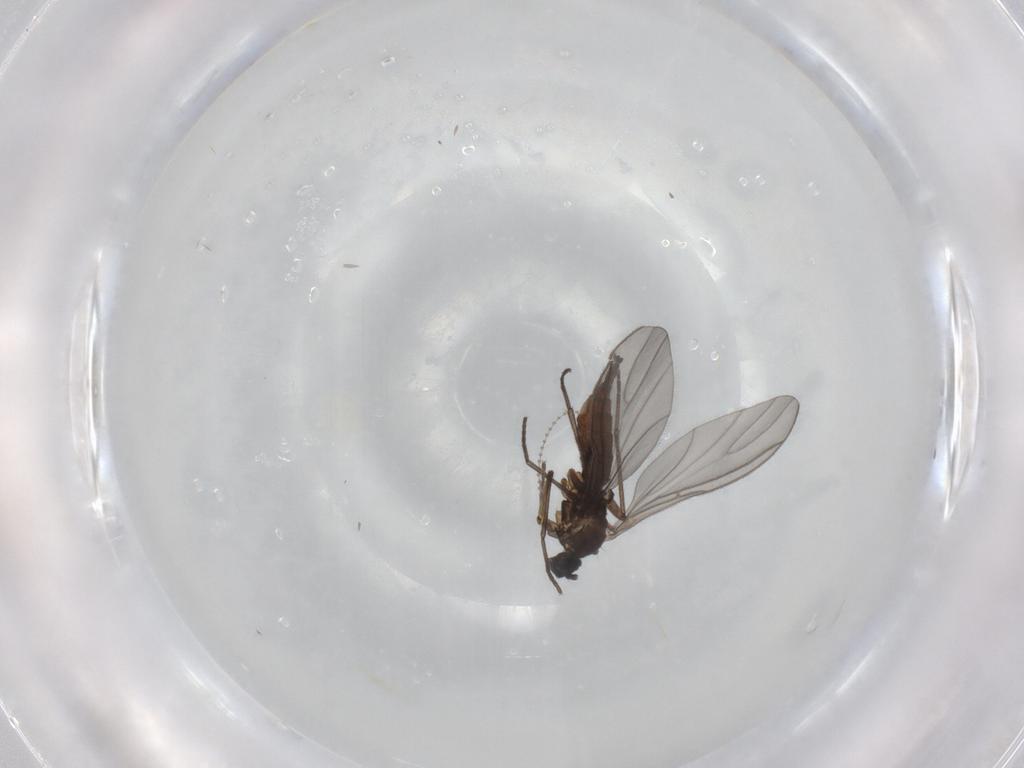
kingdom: Animalia
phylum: Arthropoda
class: Insecta
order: Diptera
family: Cecidomyiidae
